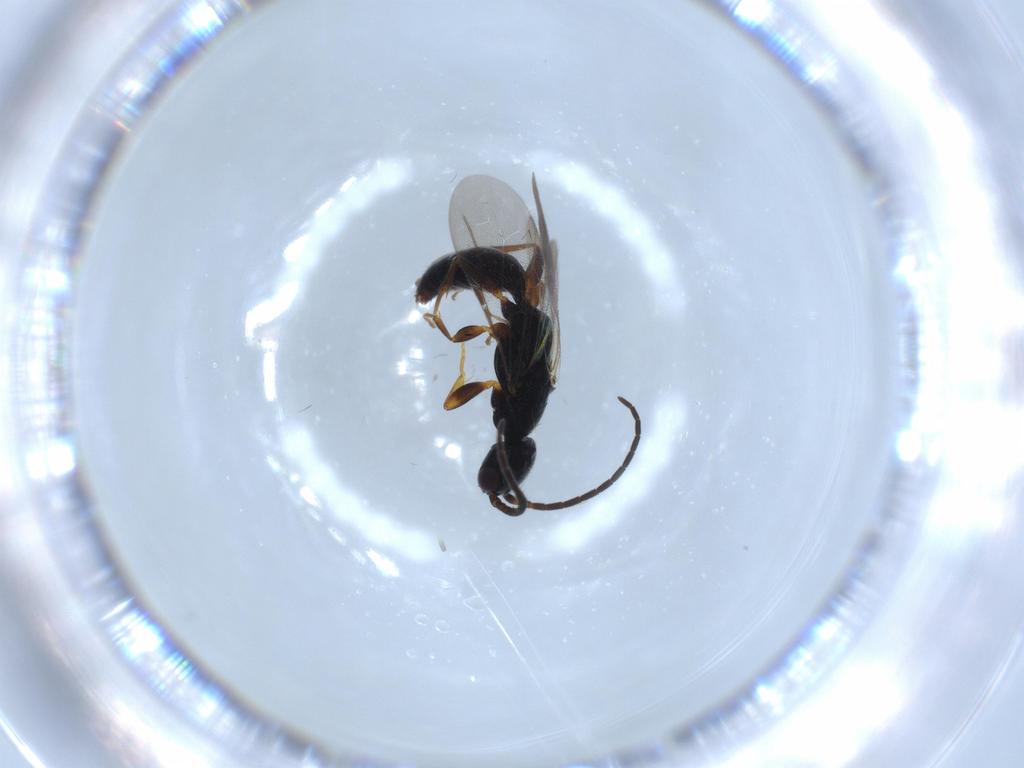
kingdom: Animalia
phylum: Arthropoda
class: Insecta
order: Hymenoptera
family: Bethylidae
